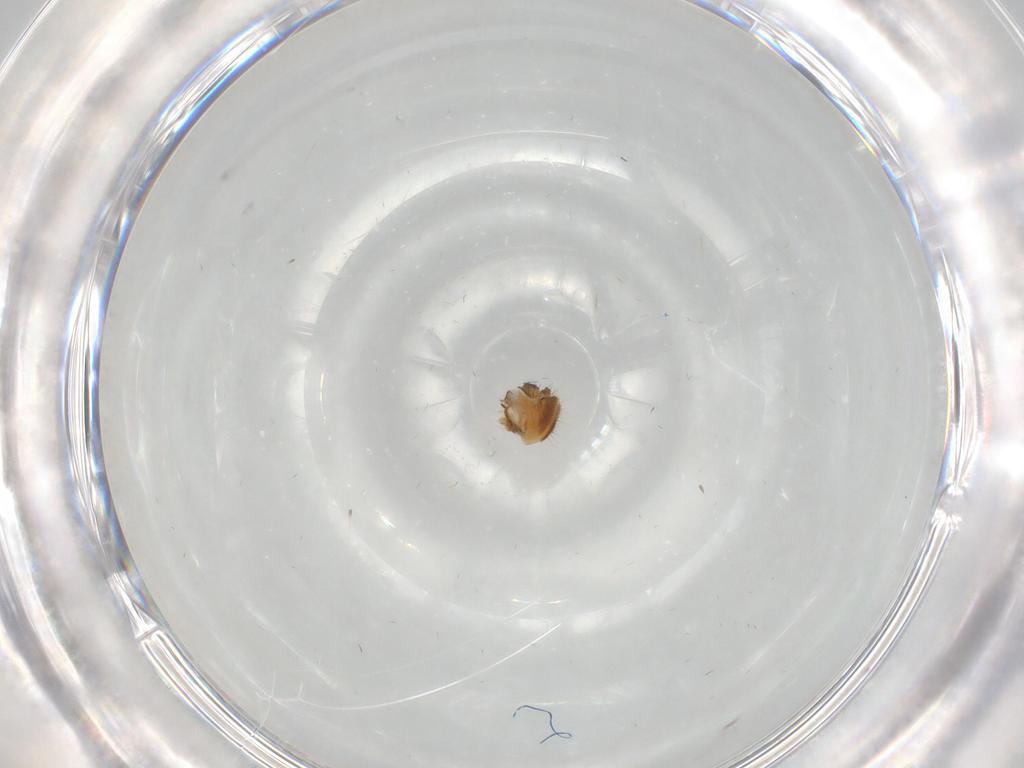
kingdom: Animalia
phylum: Arthropoda
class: Insecta
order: Diptera
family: Ulidiidae
